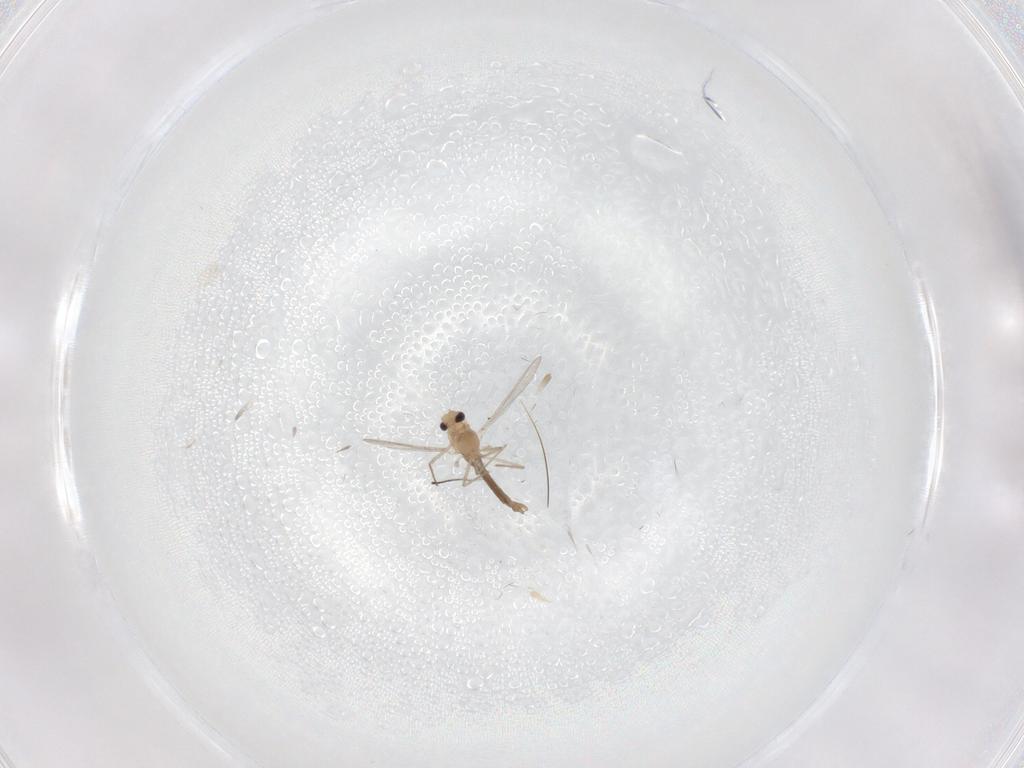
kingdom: Animalia
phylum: Arthropoda
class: Insecta
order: Diptera
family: Chironomidae
